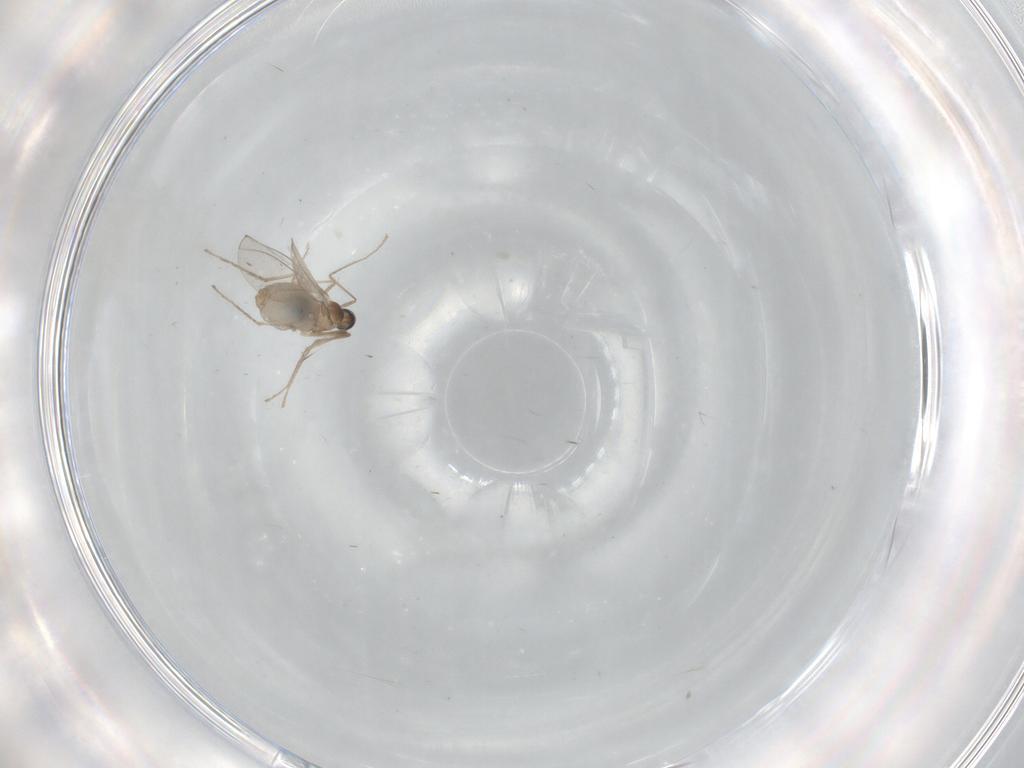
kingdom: Animalia
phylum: Arthropoda
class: Insecta
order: Diptera
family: Cecidomyiidae
